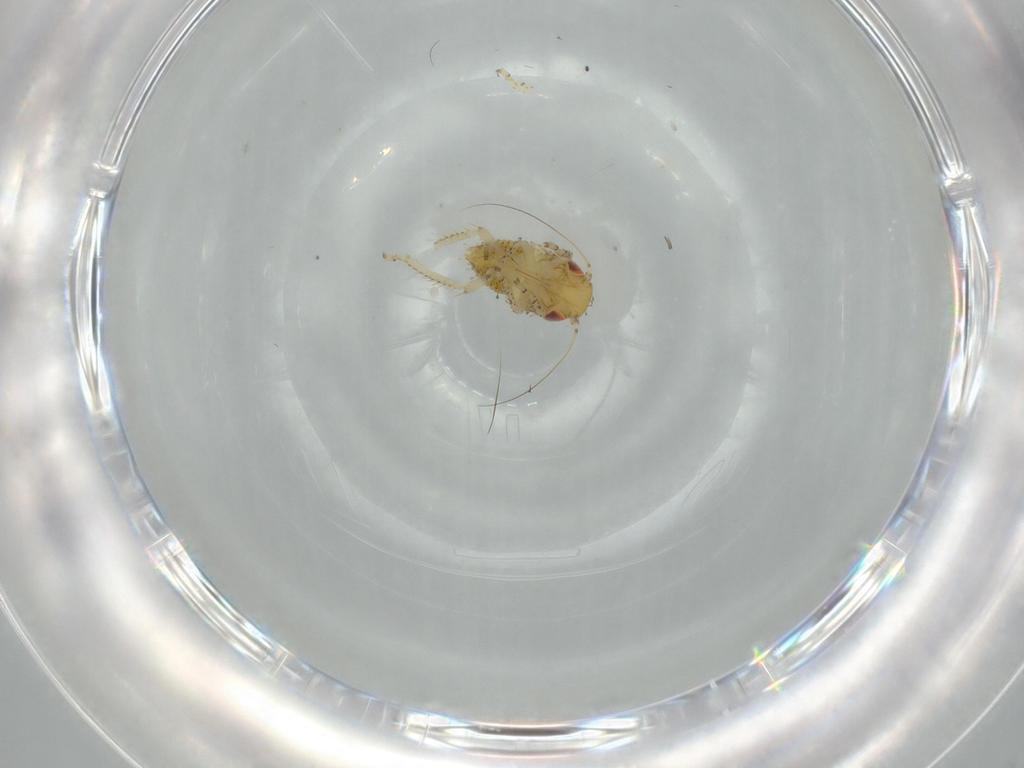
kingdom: Animalia
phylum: Arthropoda
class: Insecta
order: Hemiptera
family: Cicadellidae
